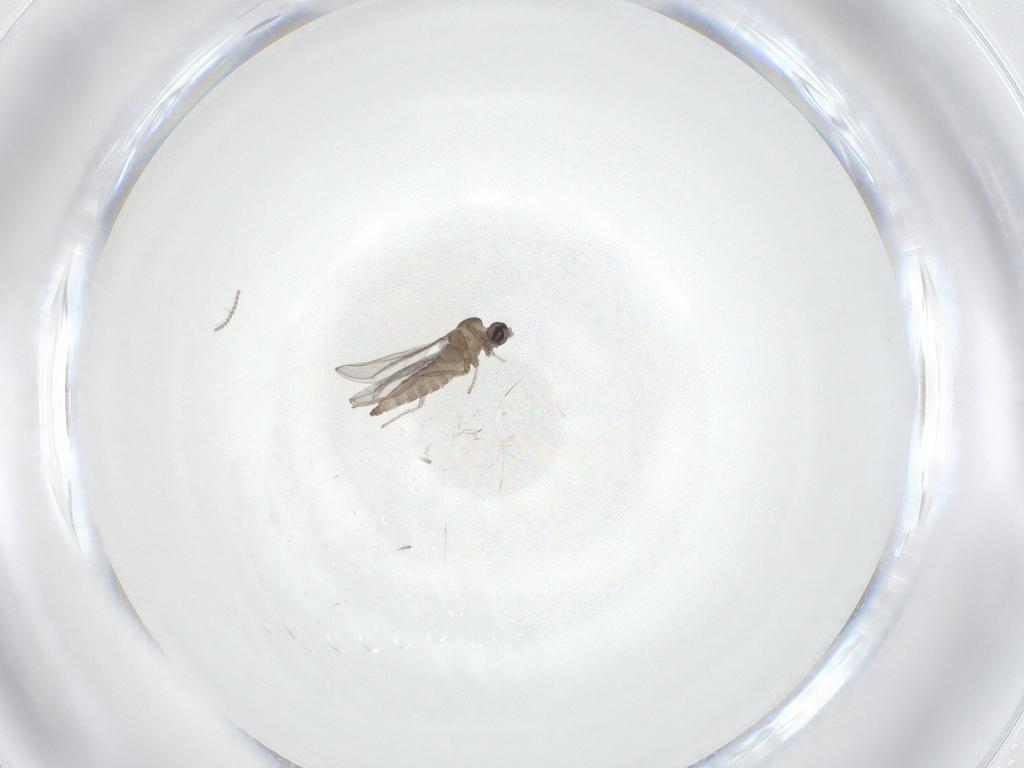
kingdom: Animalia
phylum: Arthropoda
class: Insecta
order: Diptera
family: Cecidomyiidae
